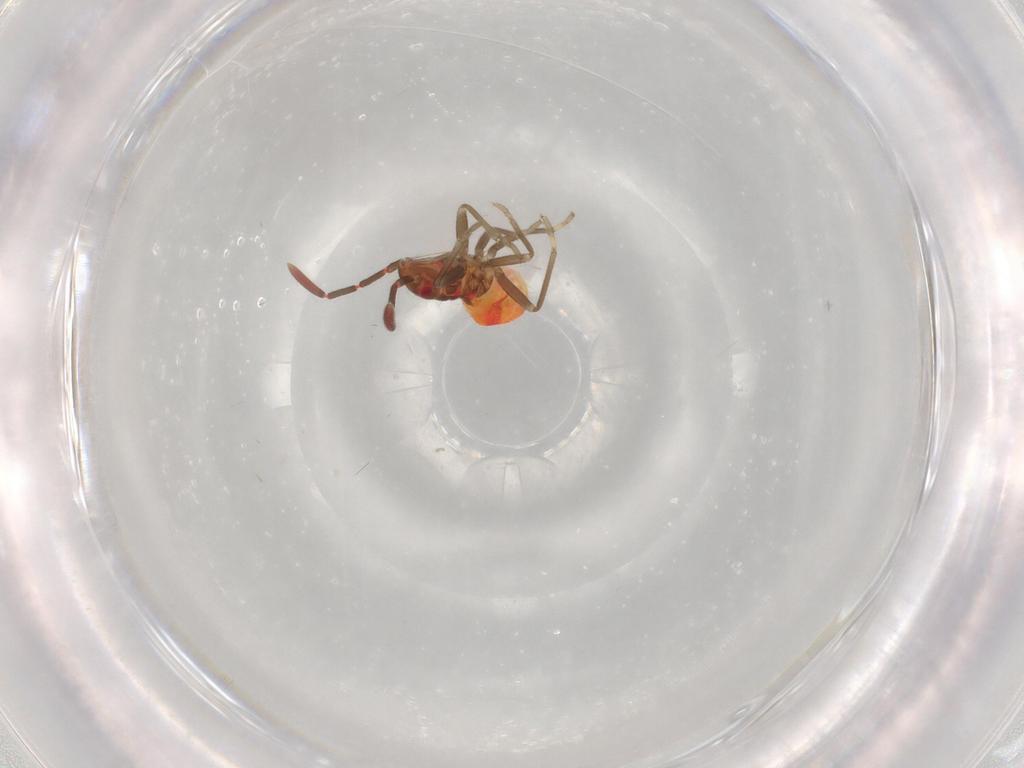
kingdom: Animalia
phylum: Arthropoda
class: Insecta
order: Hemiptera
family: Rhyparochromidae
